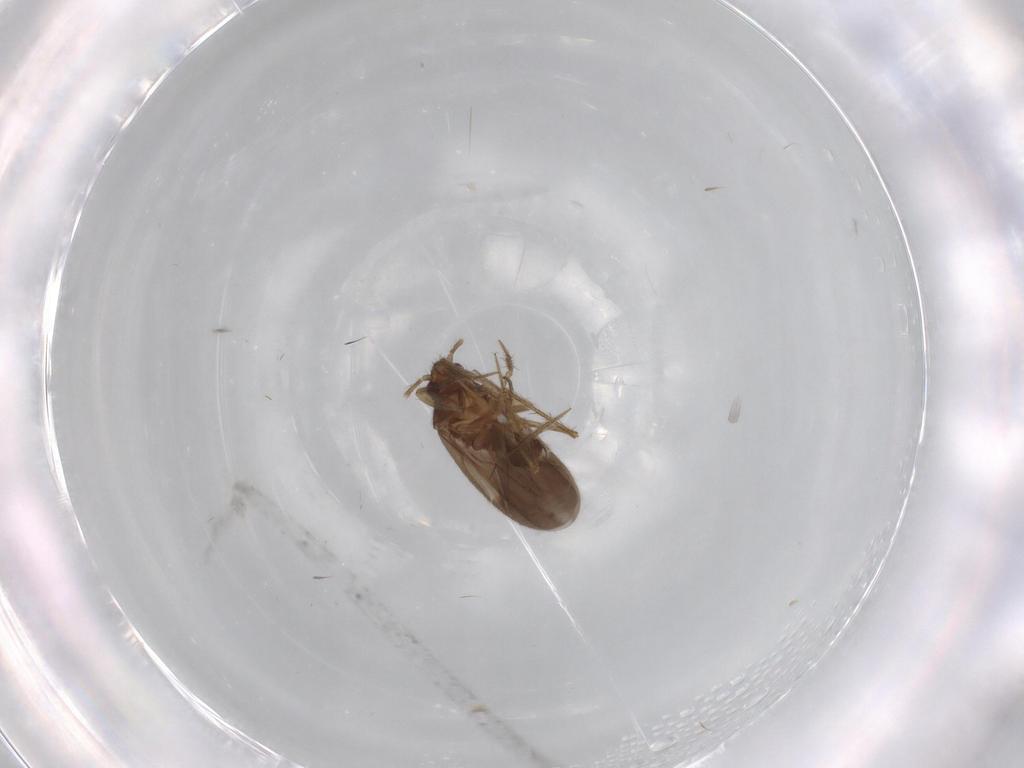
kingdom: Animalia
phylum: Arthropoda
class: Insecta
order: Hemiptera
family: Ceratocombidae
